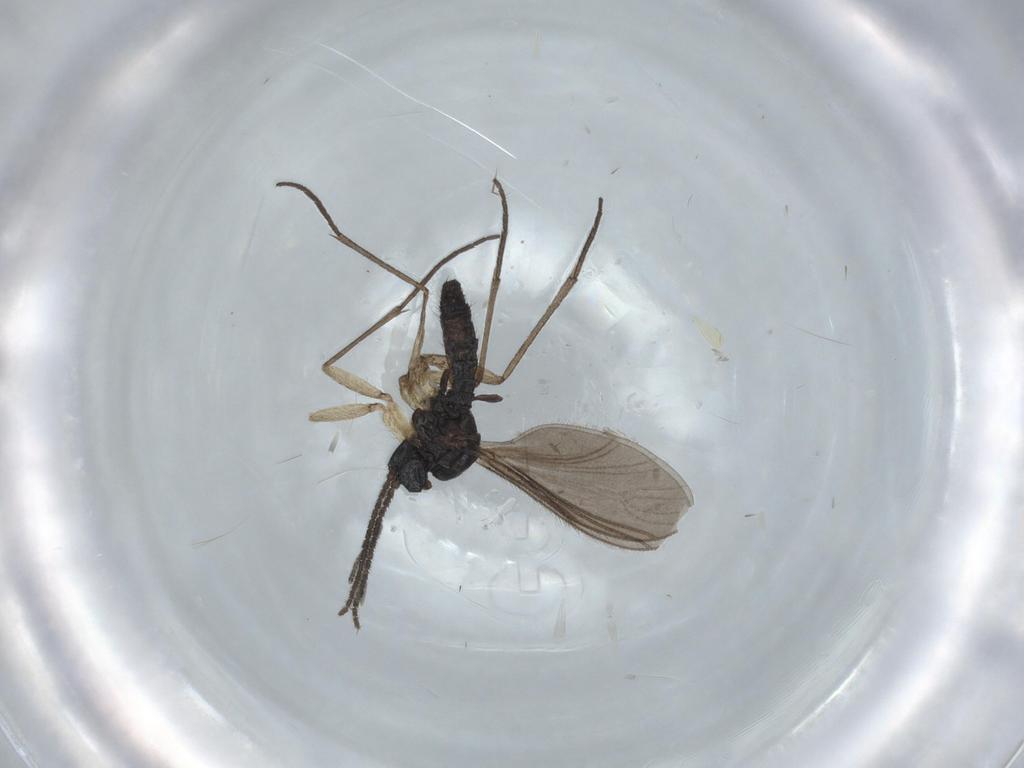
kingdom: Animalia
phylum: Arthropoda
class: Insecta
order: Diptera
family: Sciaridae
